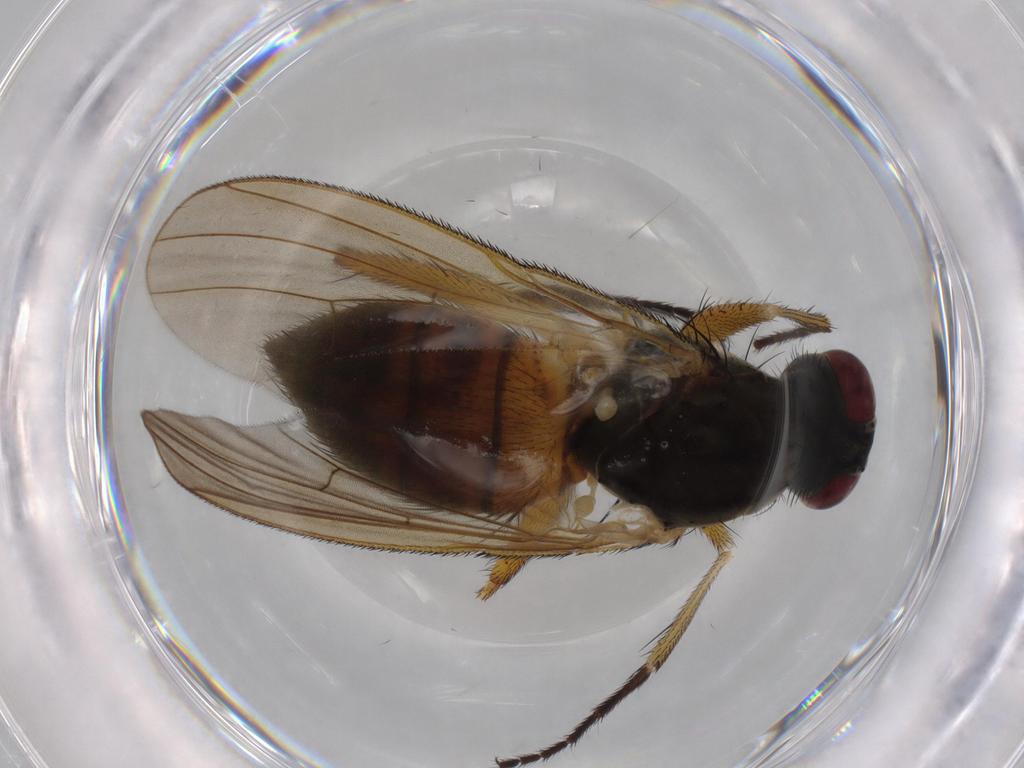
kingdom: Animalia
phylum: Arthropoda
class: Insecta
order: Diptera
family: Muscidae
